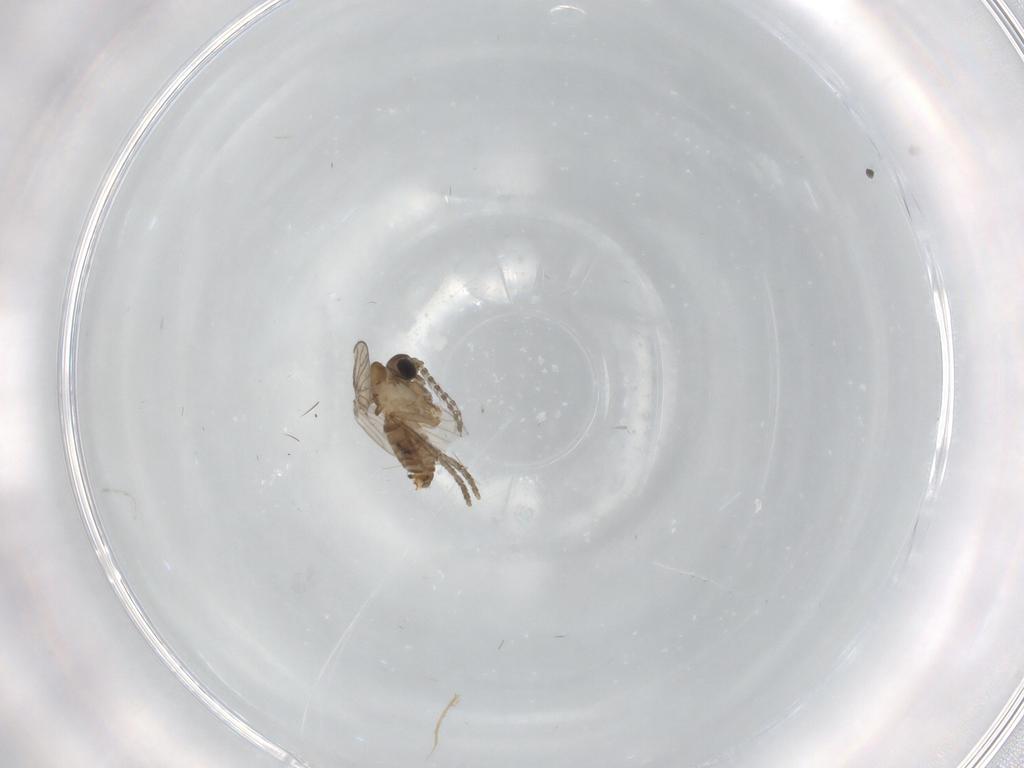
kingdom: Animalia
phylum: Arthropoda
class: Insecta
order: Diptera
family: Psychodidae
